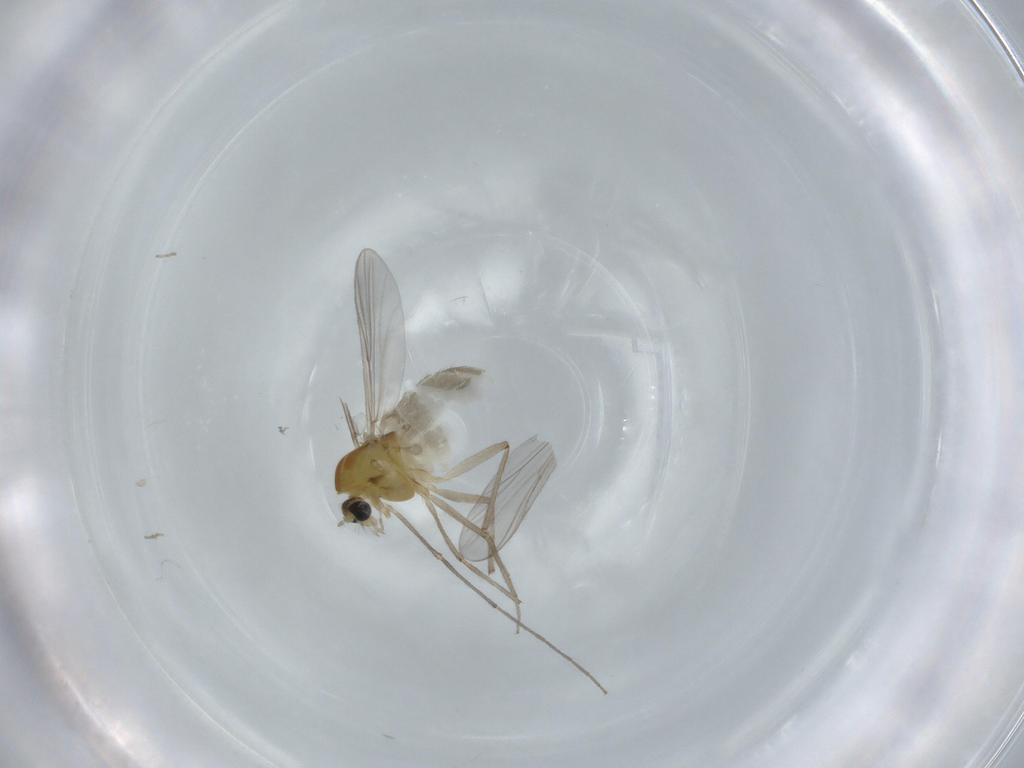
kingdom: Animalia
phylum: Arthropoda
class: Insecta
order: Diptera
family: Chironomidae
